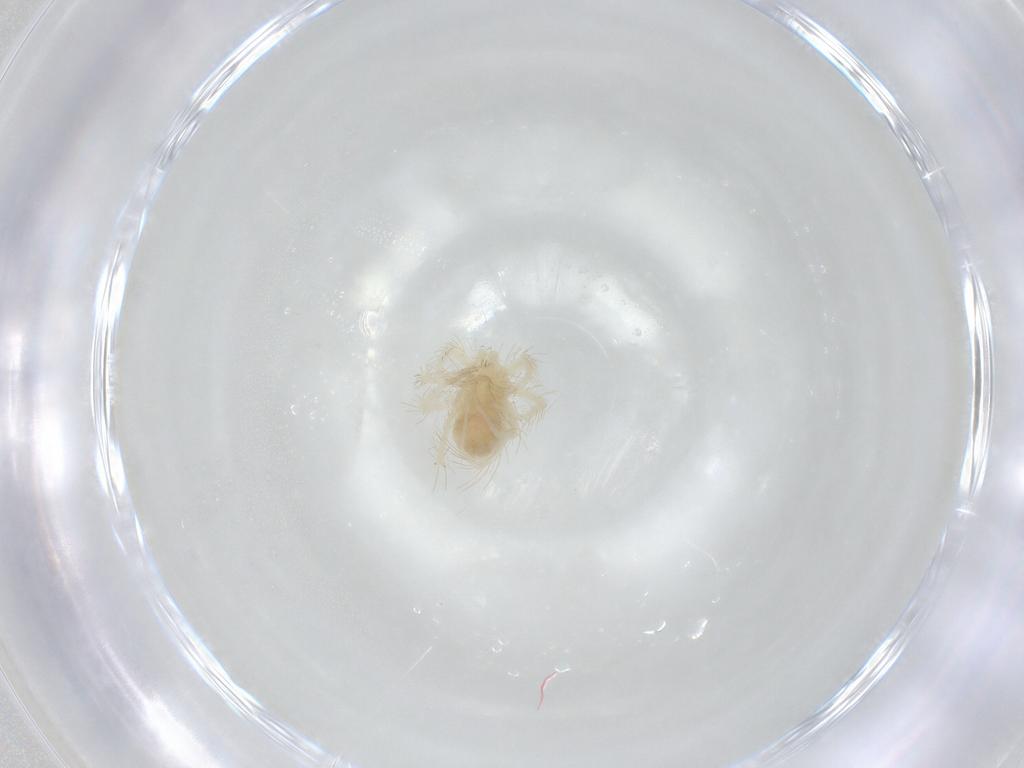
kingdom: Animalia
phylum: Arthropoda
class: Arachnida
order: Trombidiformes
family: Anystidae
